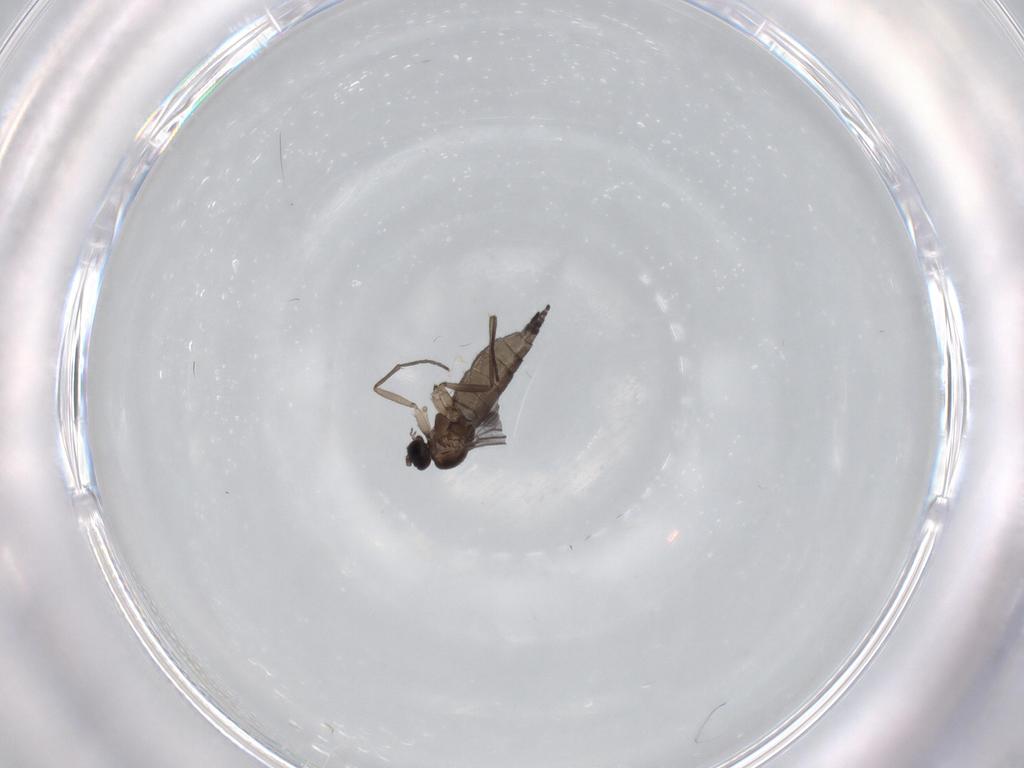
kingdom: Animalia
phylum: Arthropoda
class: Insecta
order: Diptera
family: Sciaridae
